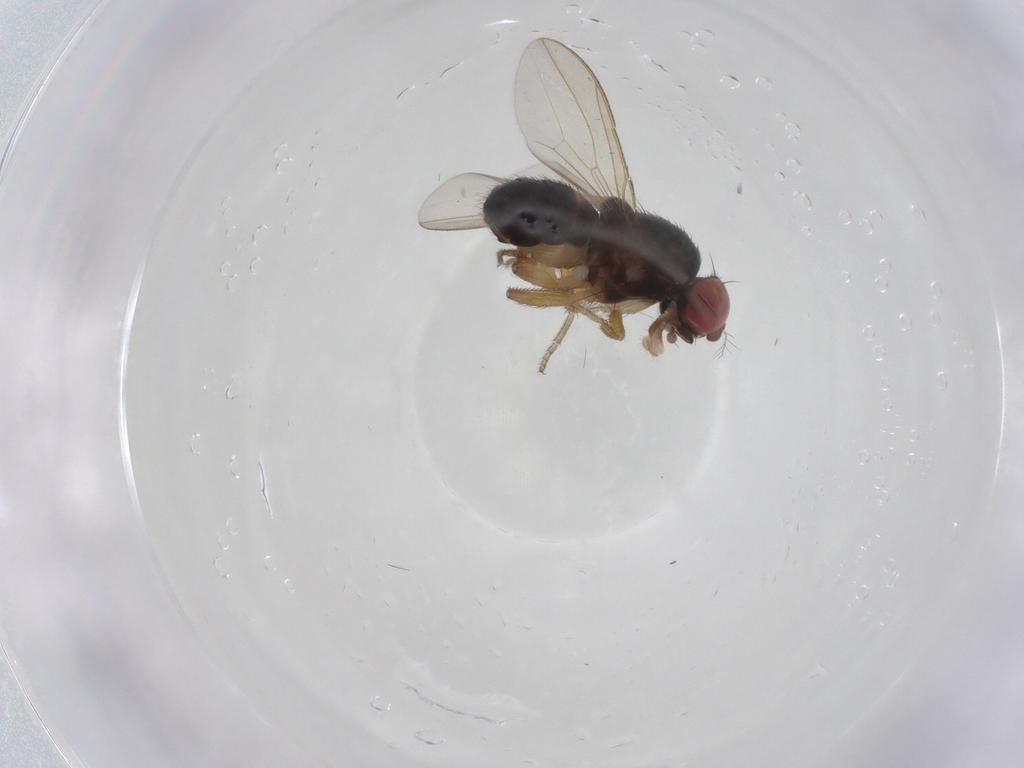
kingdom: Animalia
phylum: Arthropoda
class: Insecta
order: Diptera
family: Drosophilidae
